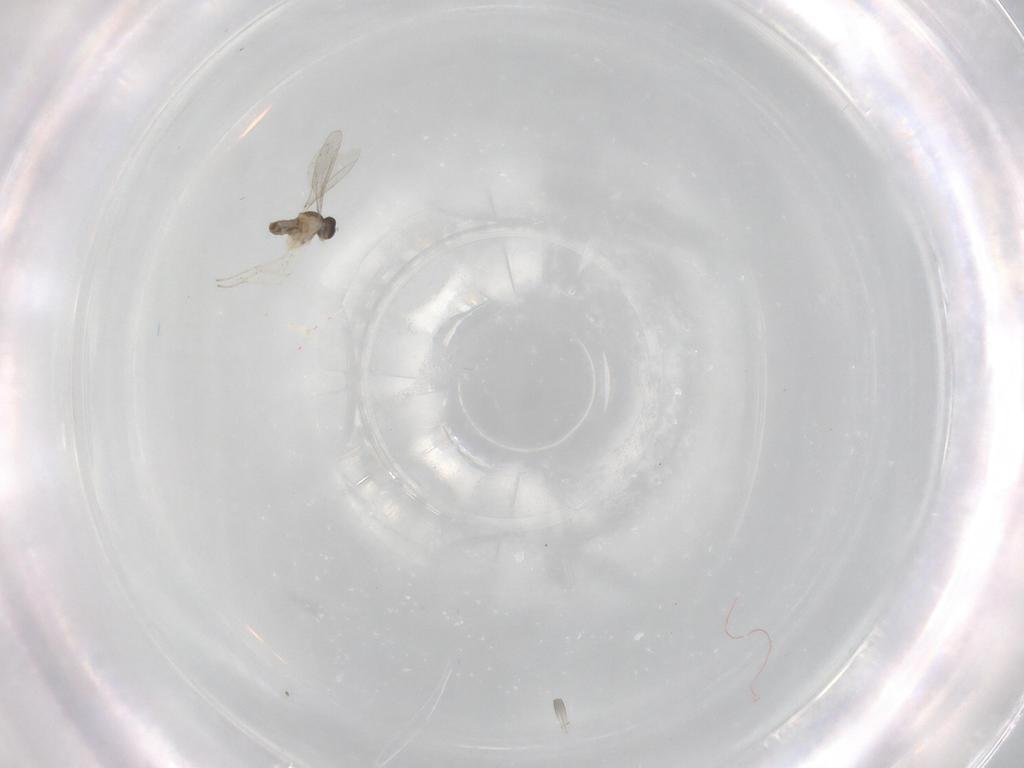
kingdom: Animalia
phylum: Arthropoda
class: Insecta
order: Diptera
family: Cecidomyiidae
